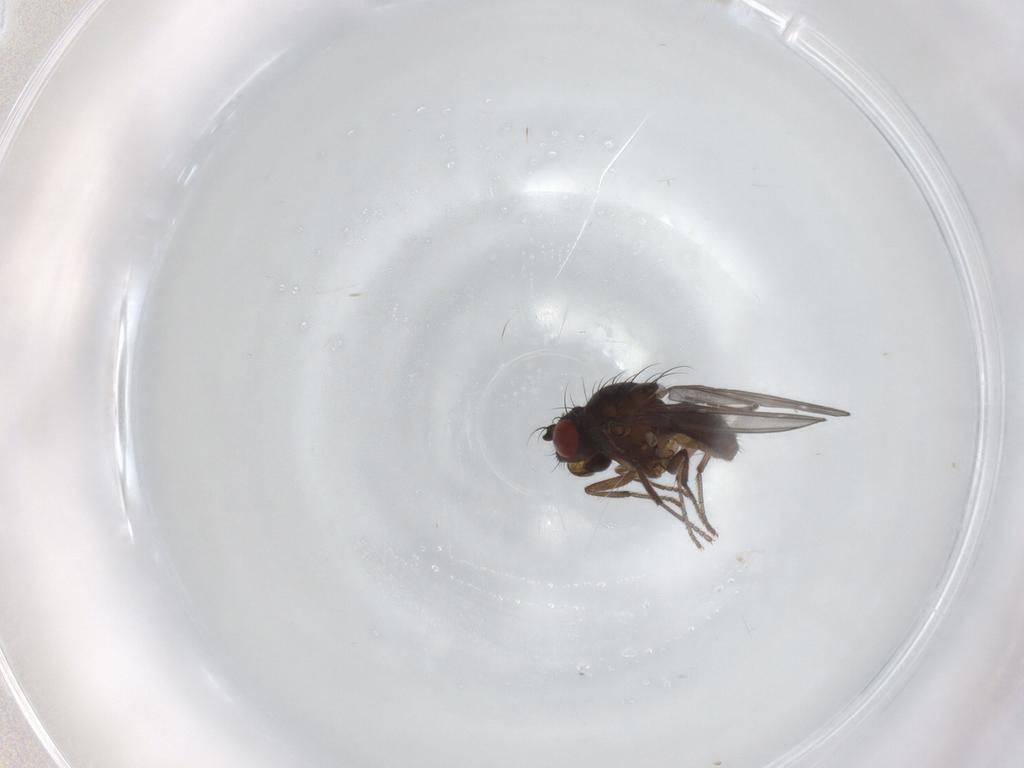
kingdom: Animalia
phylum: Arthropoda
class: Insecta
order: Diptera
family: Ephydridae
